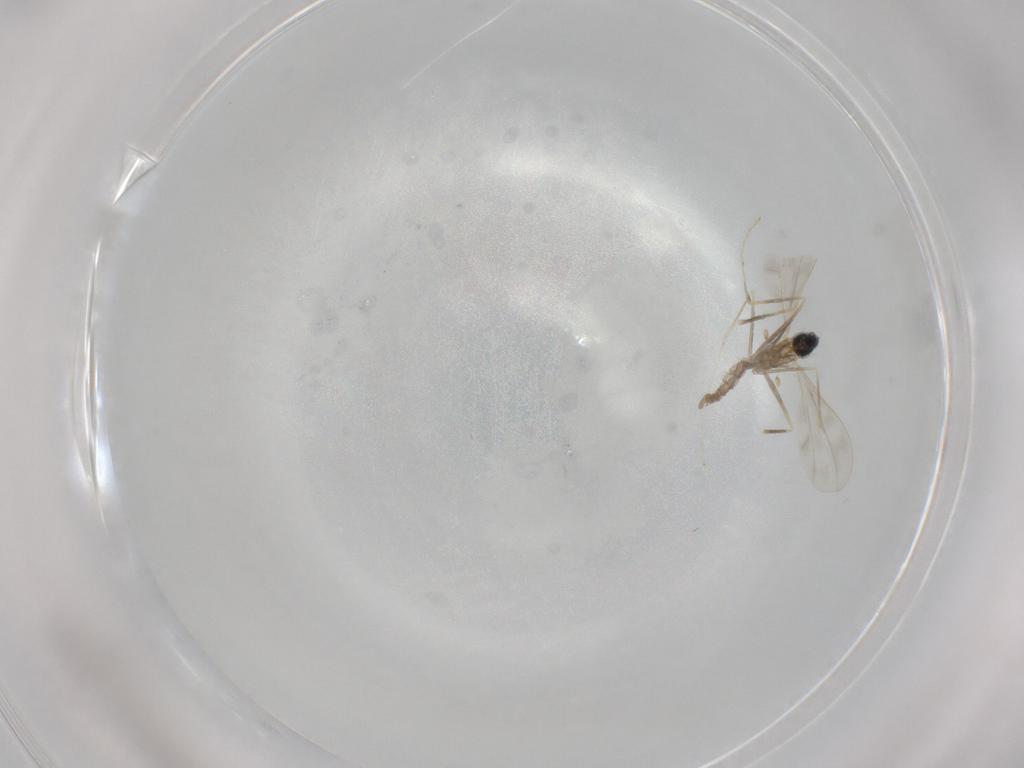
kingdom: Animalia
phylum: Arthropoda
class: Insecta
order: Diptera
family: Cecidomyiidae
